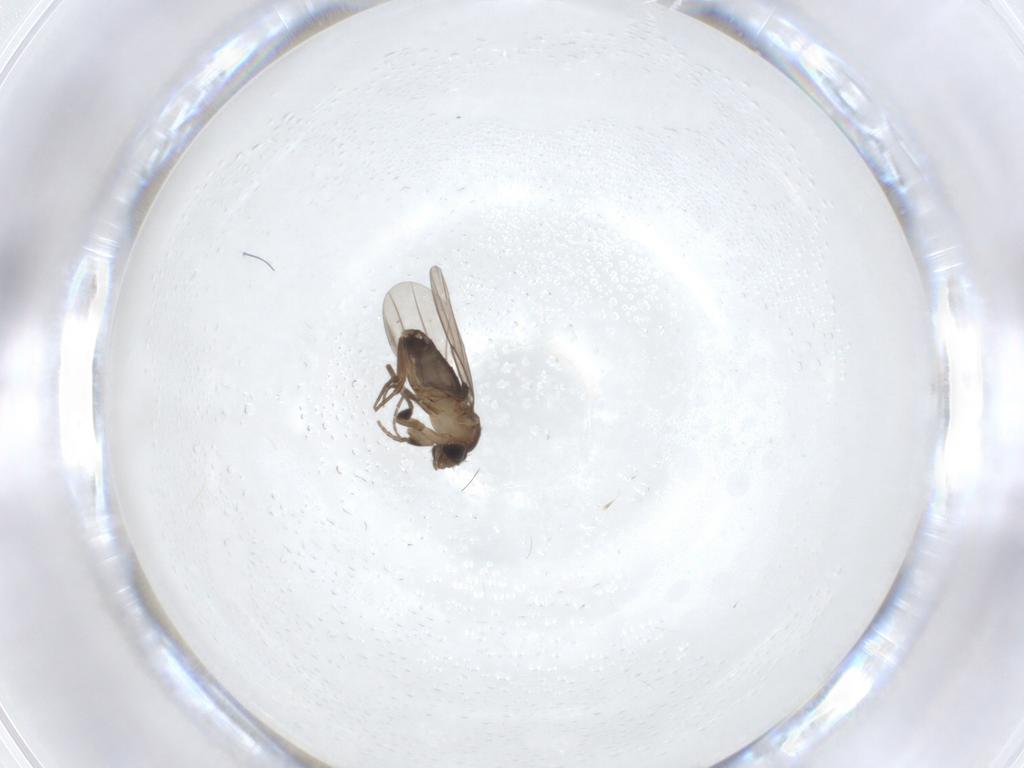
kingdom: Animalia
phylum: Arthropoda
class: Insecta
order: Diptera
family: Phoridae
